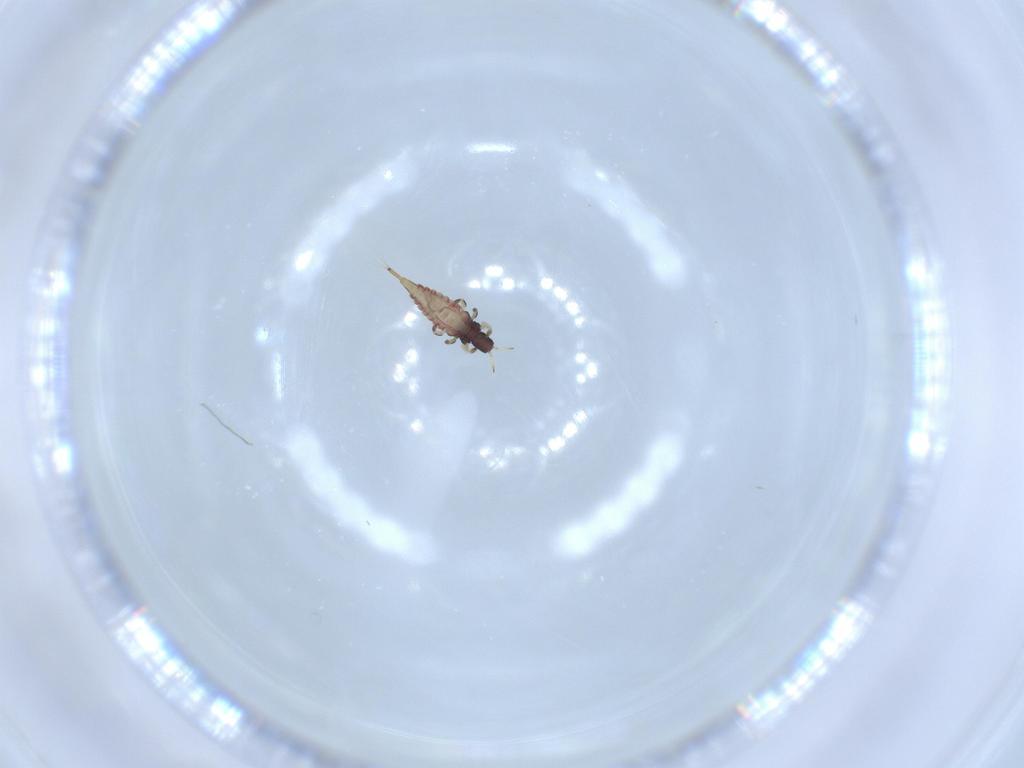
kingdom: Animalia
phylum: Arthropoda
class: Insecta
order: Thysanoptera
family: Phlaeothripidae
